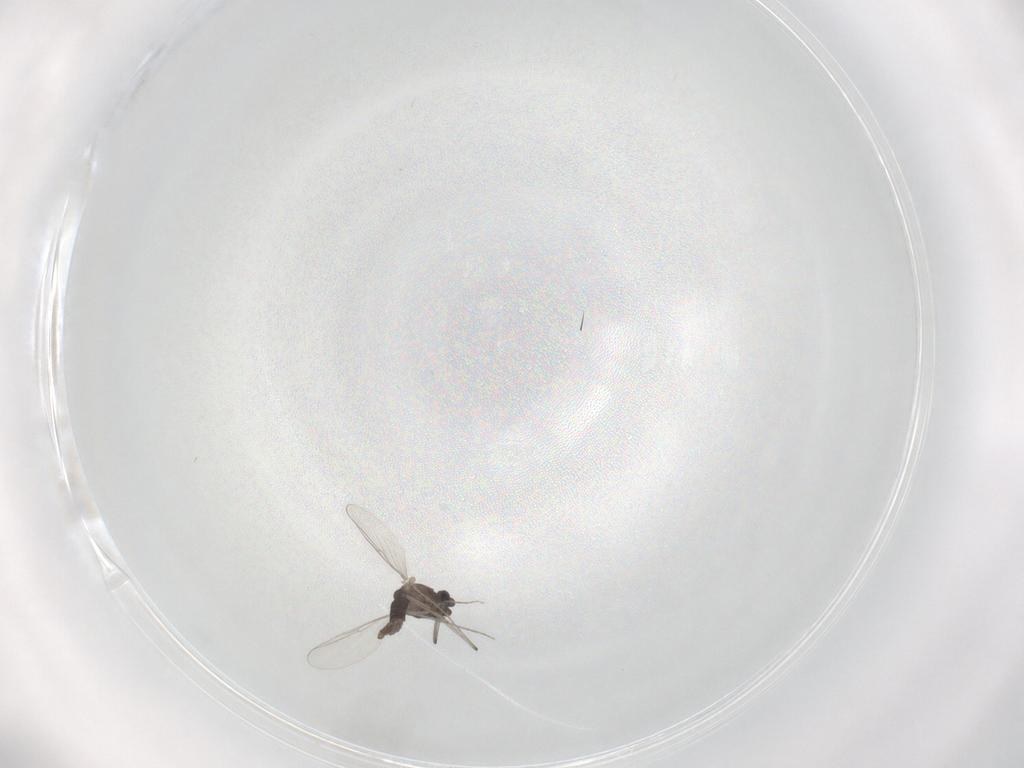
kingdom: Animalia
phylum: Arthropoda
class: Insecta
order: Diptera
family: Chironomidae
